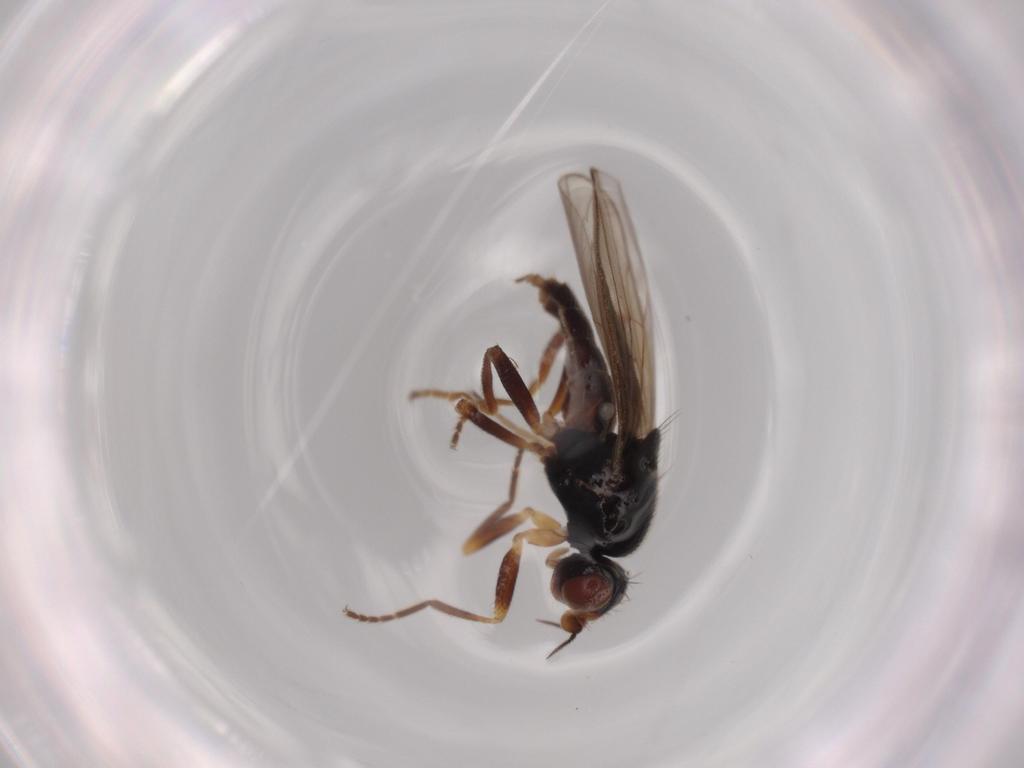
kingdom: Animalia
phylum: Arthropoda
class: Insecta
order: Diptera
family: Chloropidae
